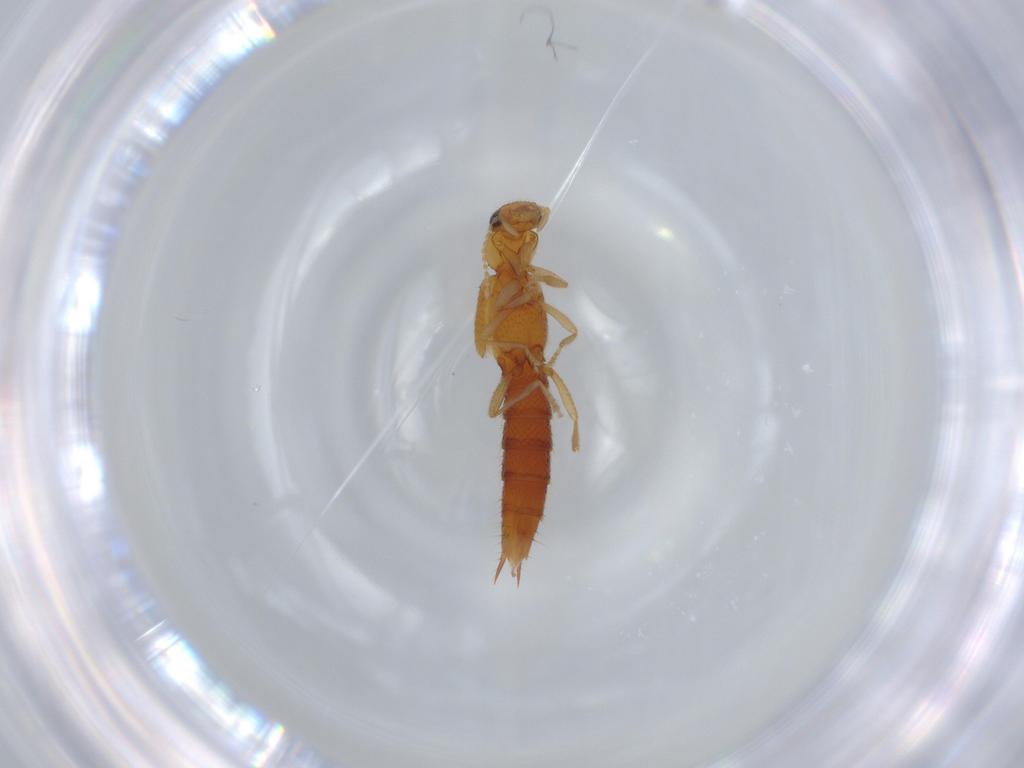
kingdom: Animalia
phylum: Arthropoda
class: Insecta
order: Coleoptera
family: Staphylinidae
